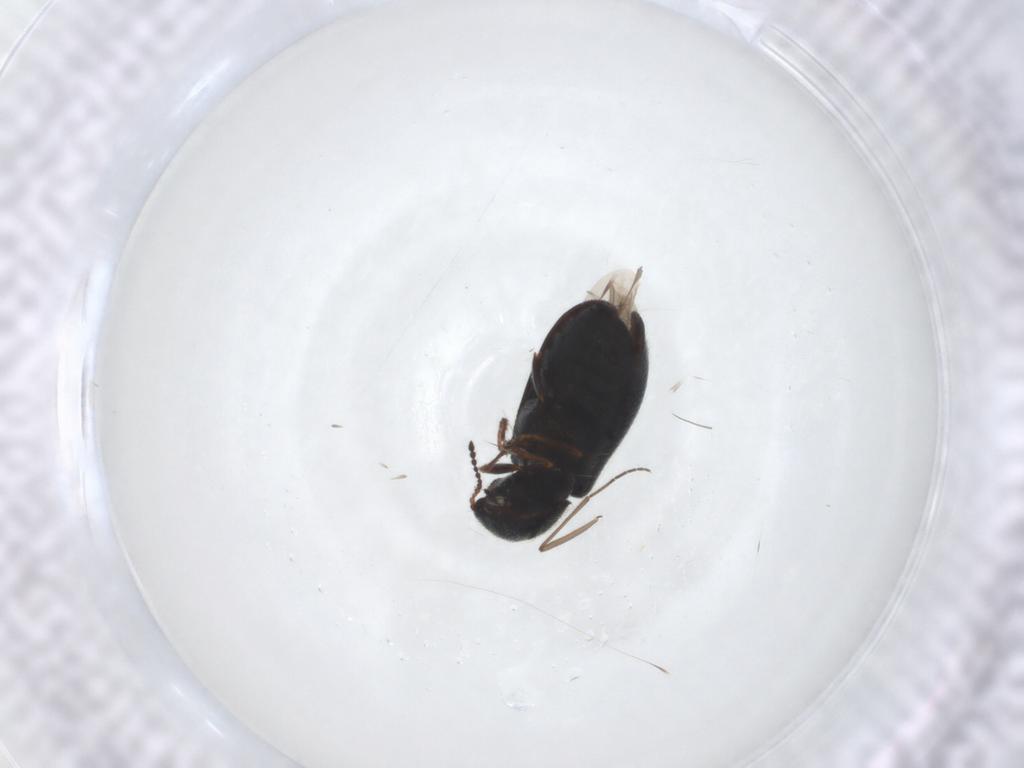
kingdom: Animalia
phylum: Arthropoda
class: Insecta
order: Coleoptera
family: Melyridae
